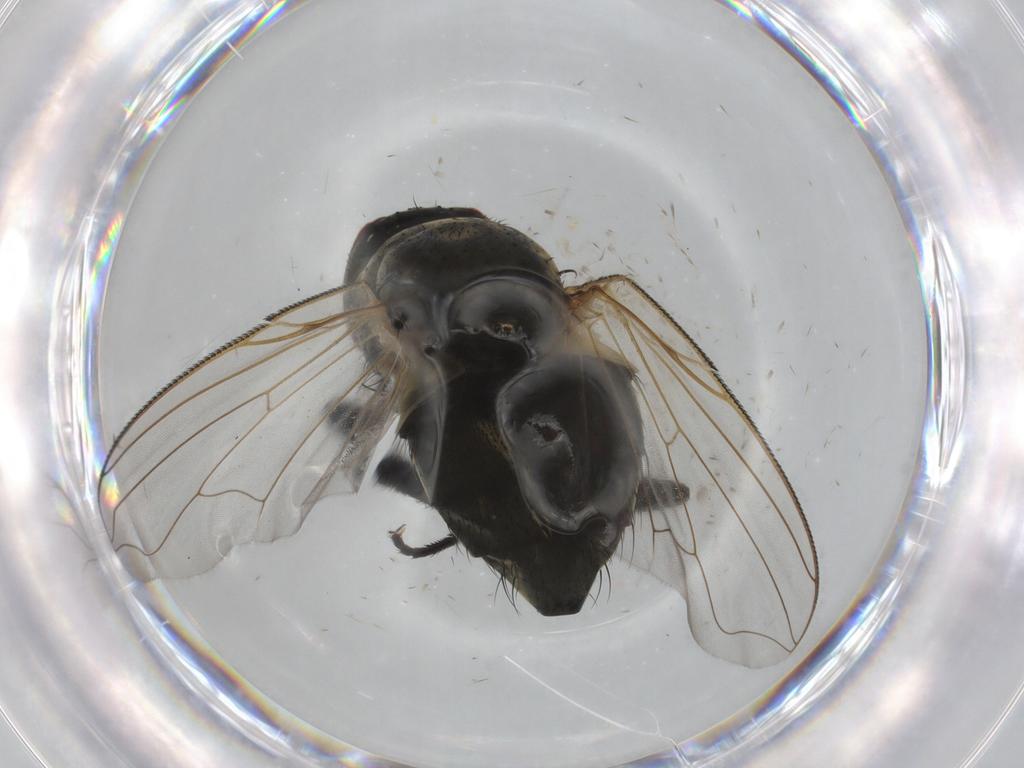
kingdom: Animalia
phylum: Arthropoda
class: Insecta
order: Diptera
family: Muscidae
